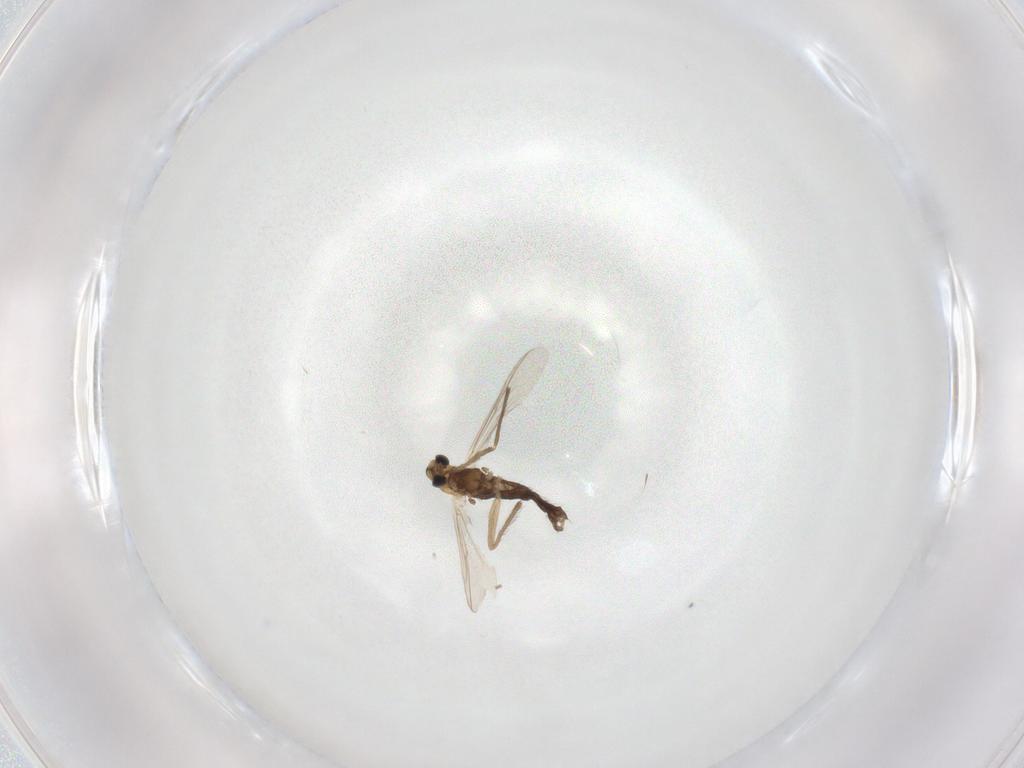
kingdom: Animalia
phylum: Arthropoda
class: Insecta
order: Diptera
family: Chironomidae
